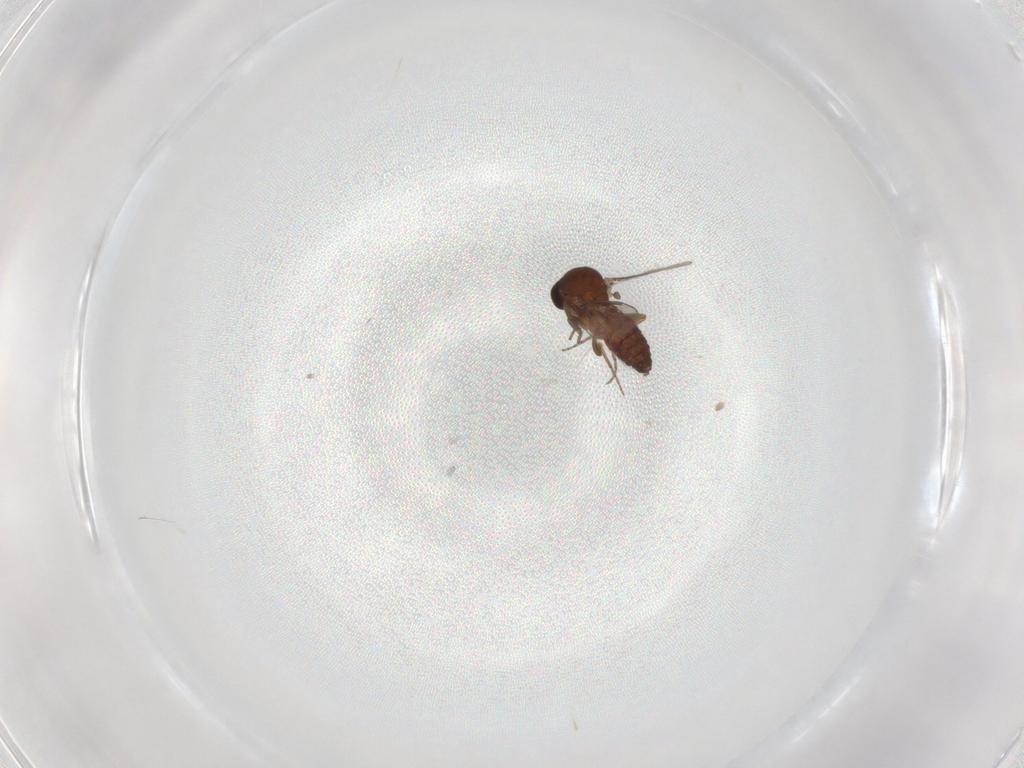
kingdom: Animalia
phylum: Arthropoda
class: Insecta
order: Diptera
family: Ceratopogonidae
